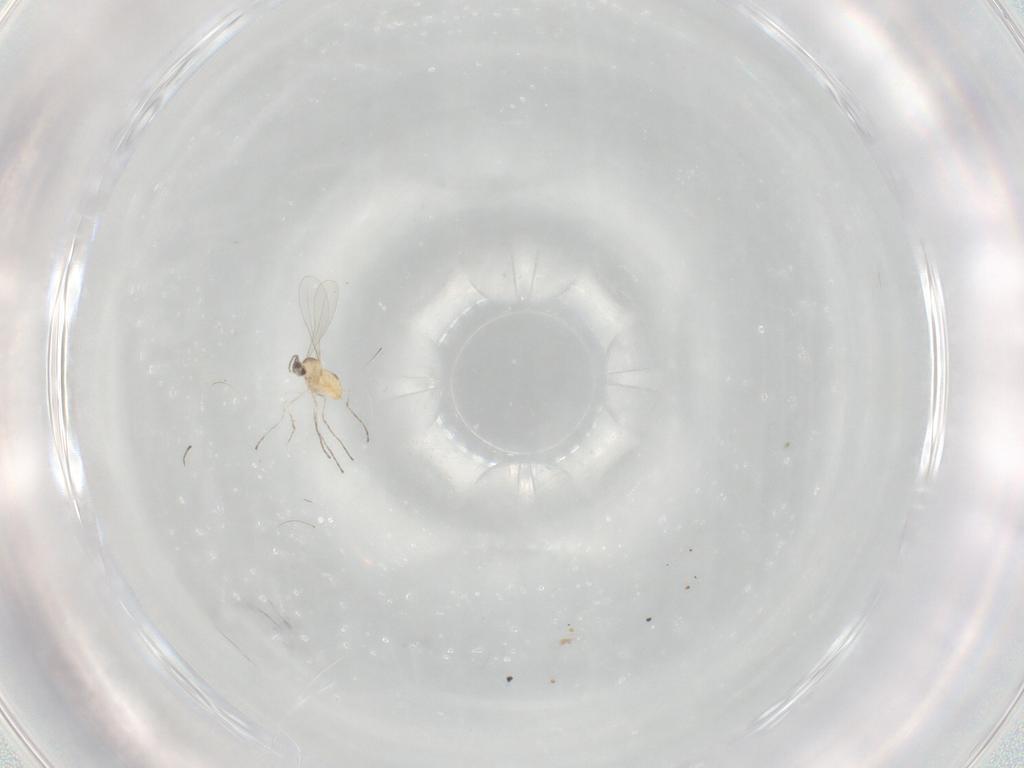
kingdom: Animalia
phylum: Arthropoda
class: Insecta
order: Diptera
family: Cecidomyiidae
